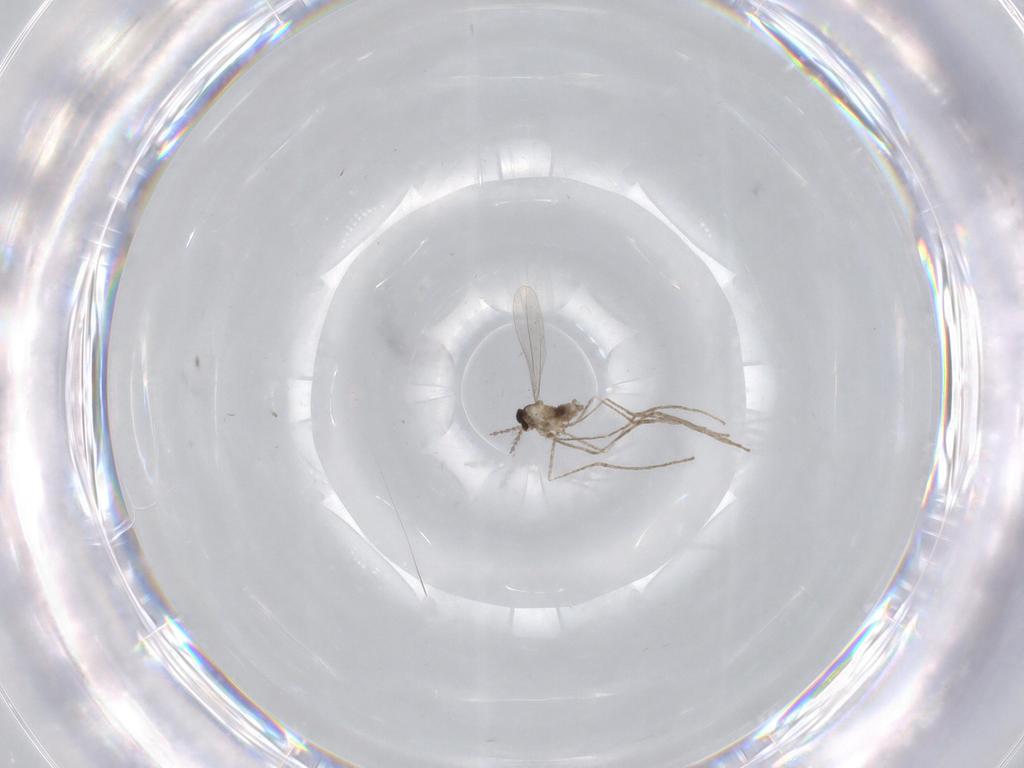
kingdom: Animalia
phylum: Arthropoda
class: Insecta
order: Diptera
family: Cecidomyiidae
